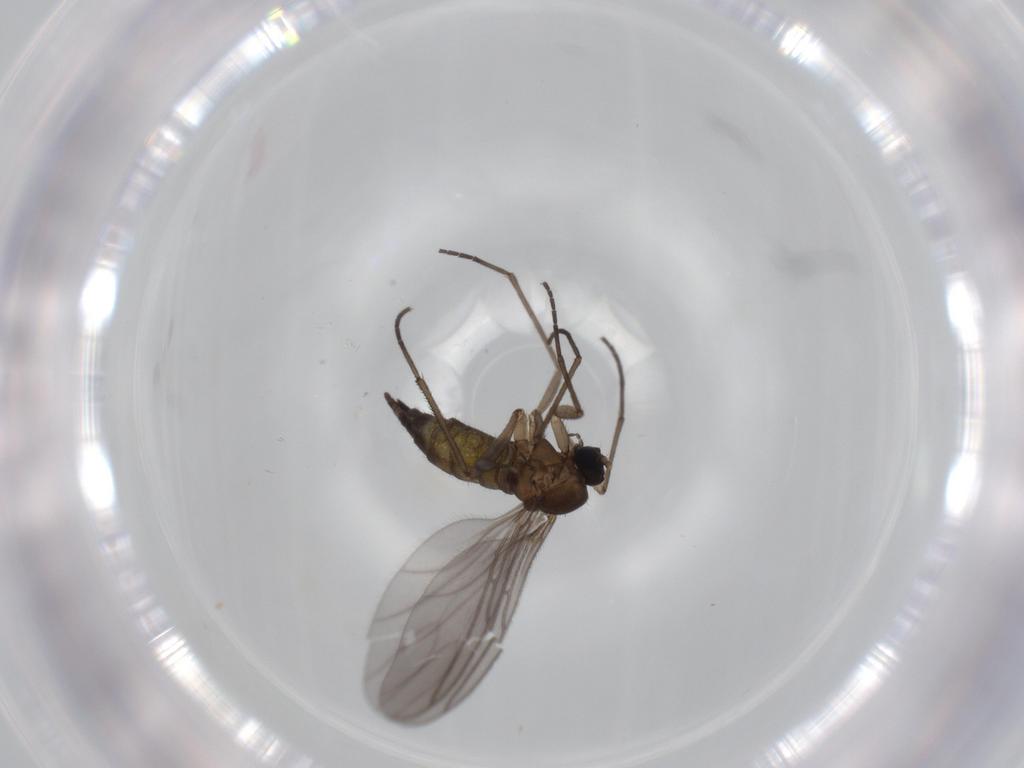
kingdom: Animalia
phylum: Arthropoda
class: Insecta
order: Diptera
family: Sciaridae
